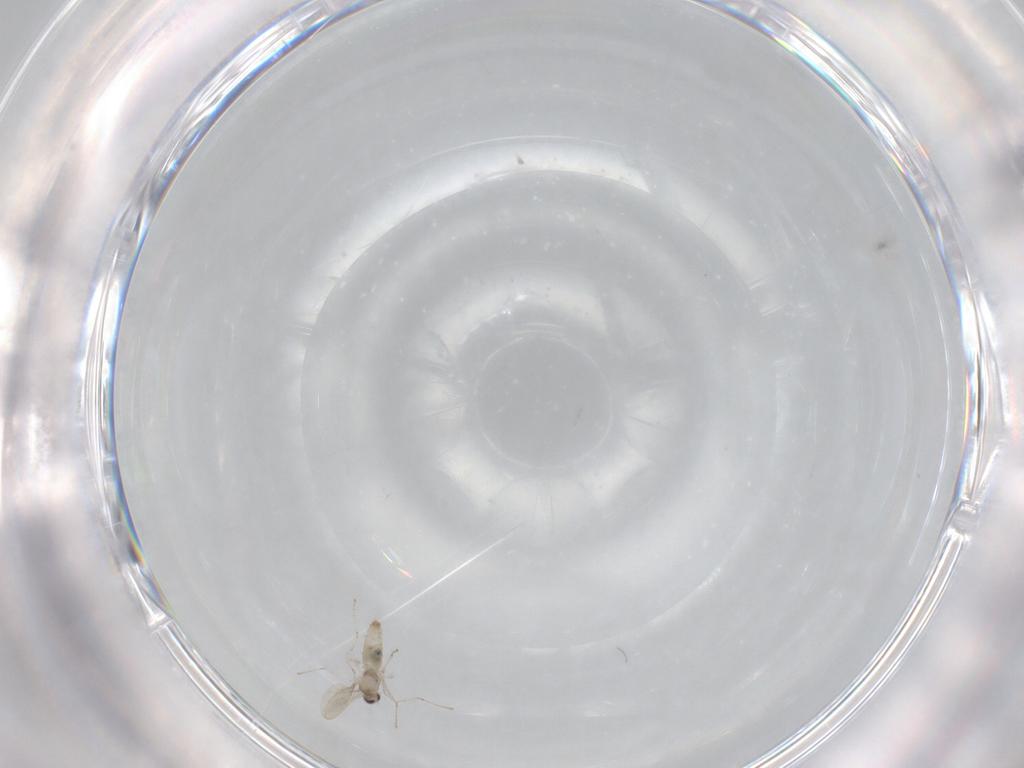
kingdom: Animalia
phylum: Arthropoda
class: Insecta
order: Diptera
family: Cecidomyiidae
